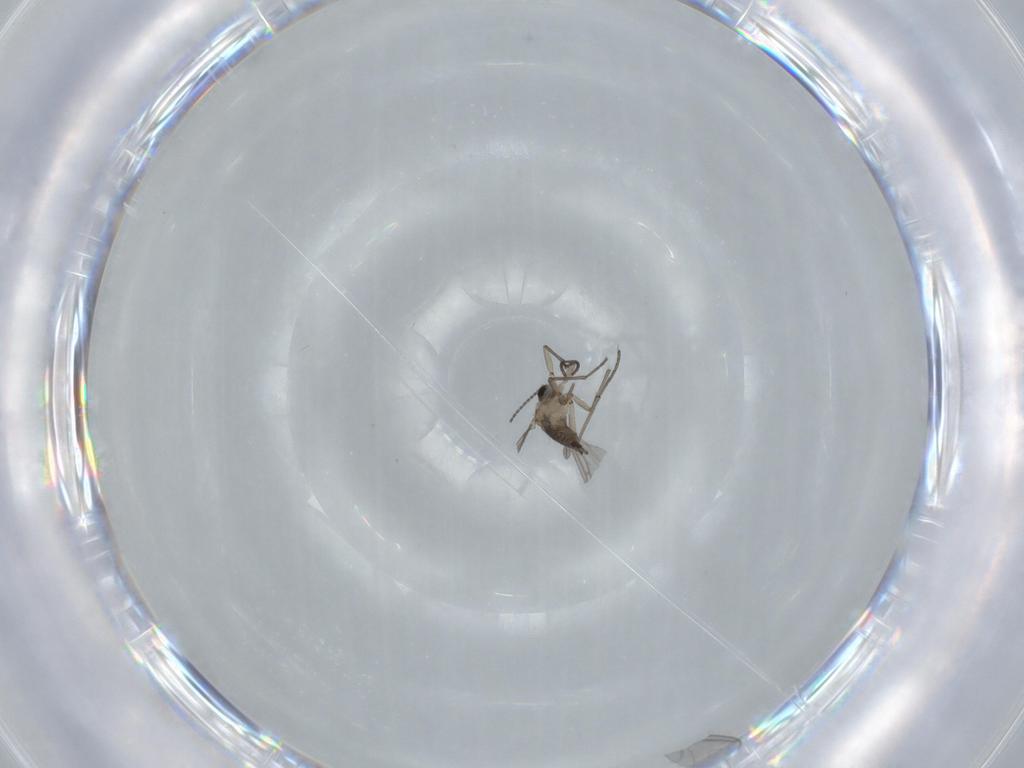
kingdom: Animalia
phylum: Arthropoda
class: Insecta
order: Diptera
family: Sciaridae
